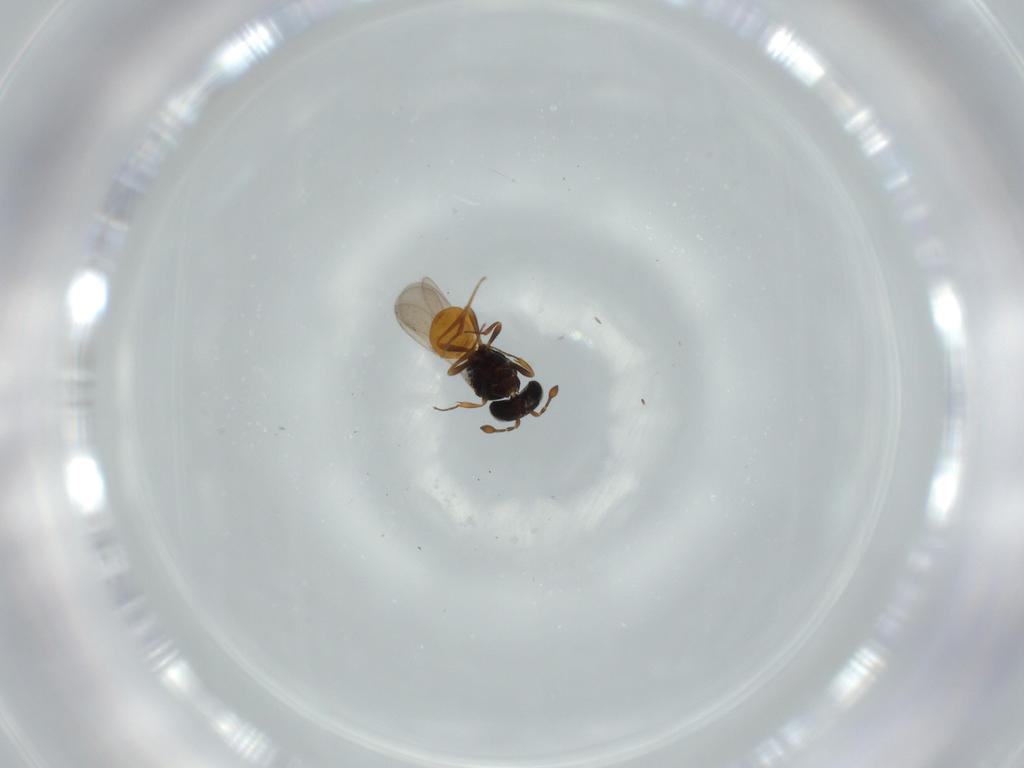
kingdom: Animalia
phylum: Arthropoda
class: Insecta
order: Hymenoptera
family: Scelionidae
